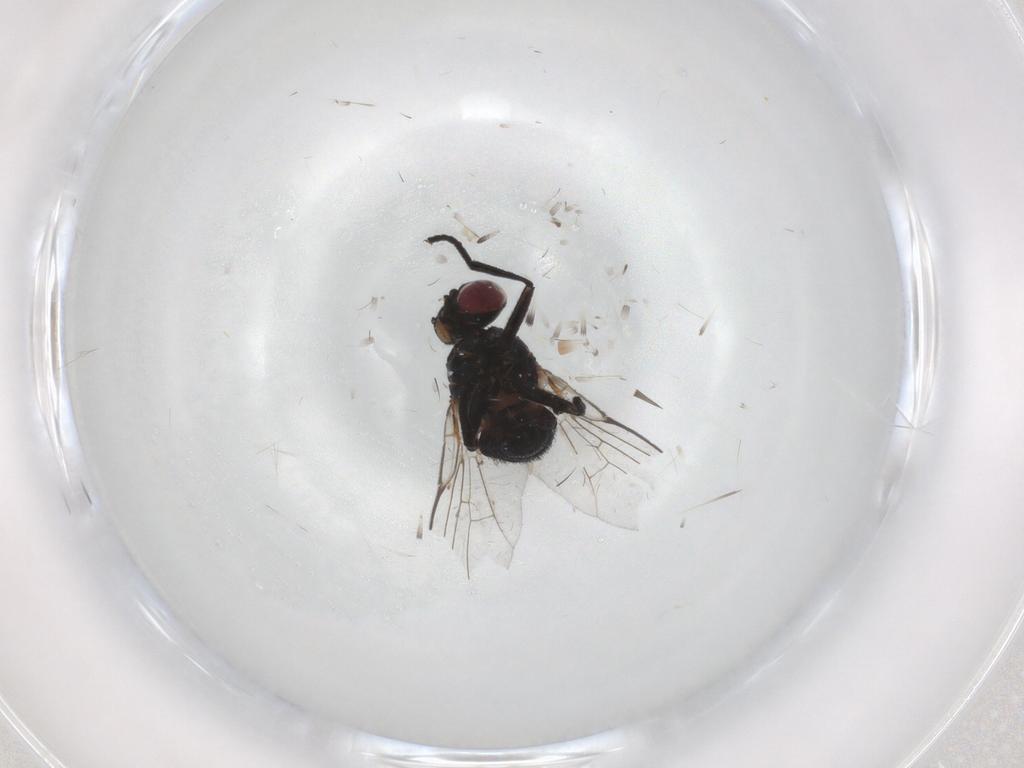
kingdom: Animalia
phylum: Arthropoda
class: Insecta
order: Diptera
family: Agromyzidae
